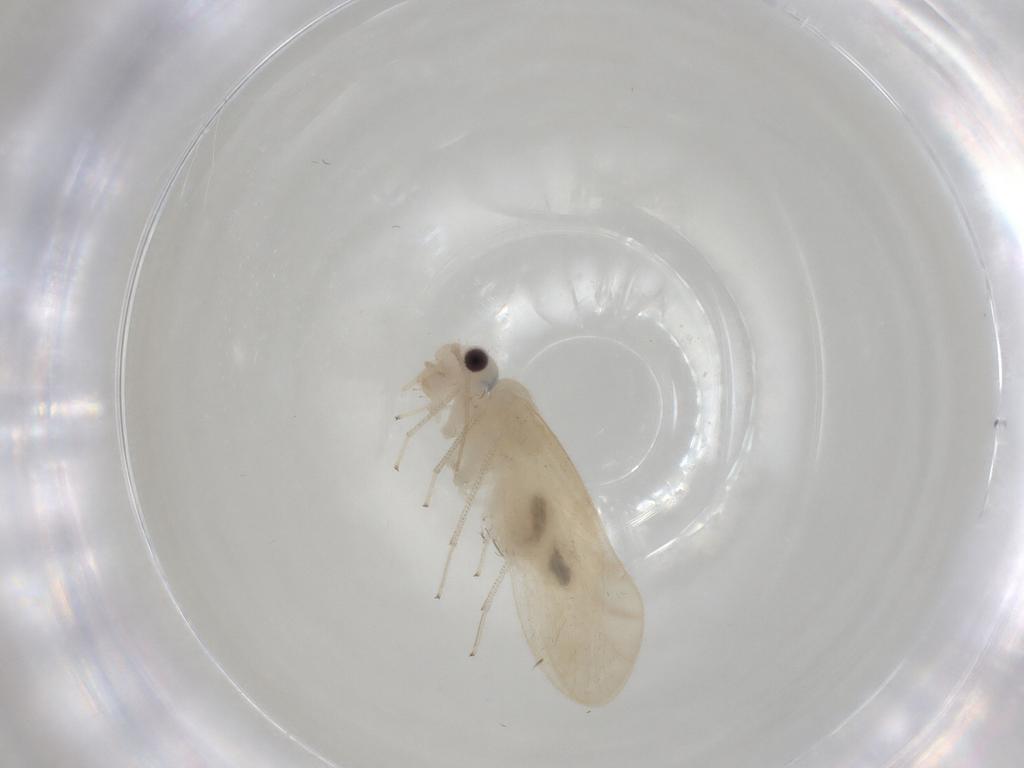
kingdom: Animalia
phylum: Arthropoda
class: Insecta
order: Psocodea
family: Caeciliusidae
